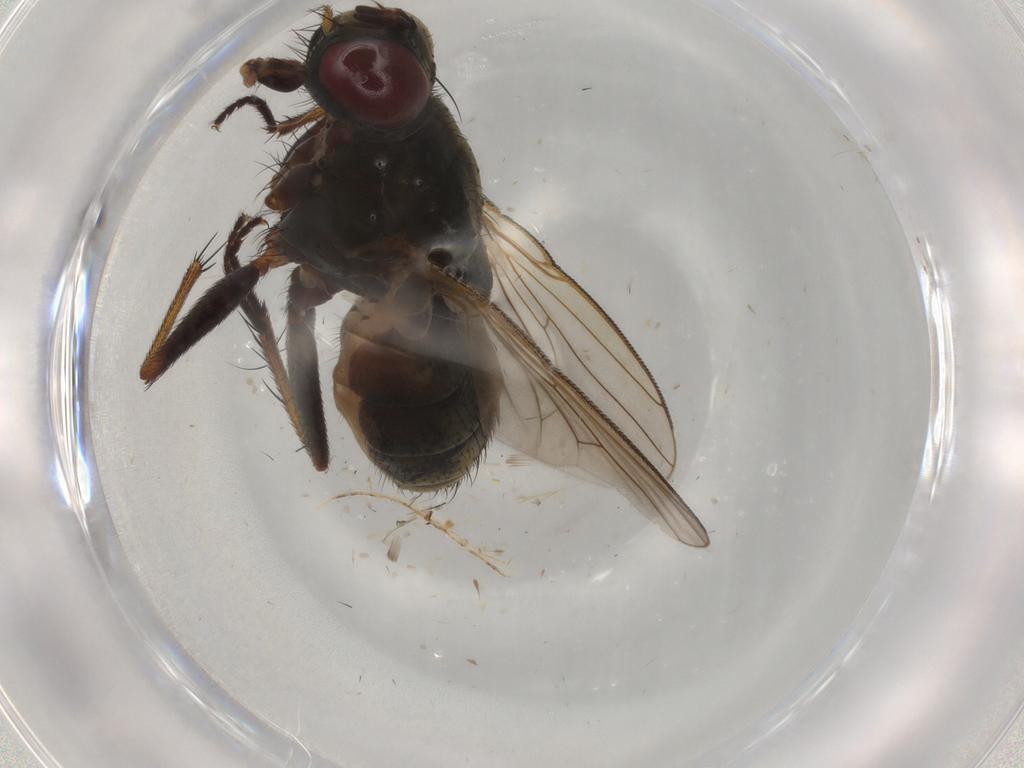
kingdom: Animalia
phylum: Arthropoda
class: Insecta
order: Diptera
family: Muscidae
